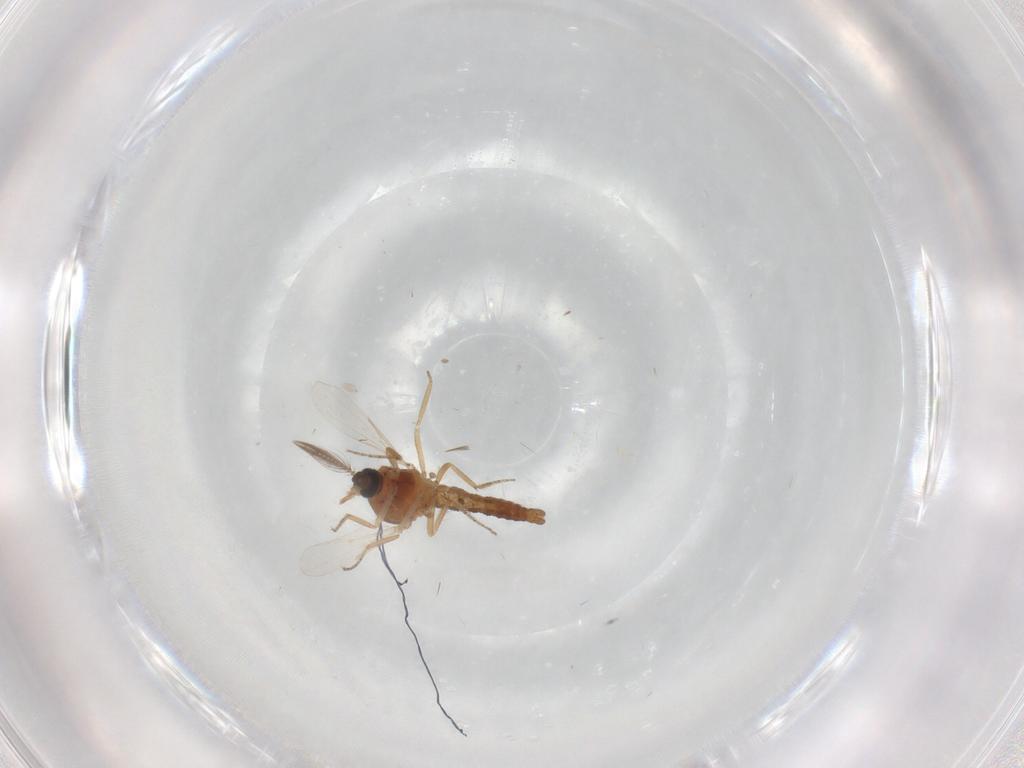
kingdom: Animalia
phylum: Arthropoda
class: Insecta
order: Diptera
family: Ceratopogonidae
